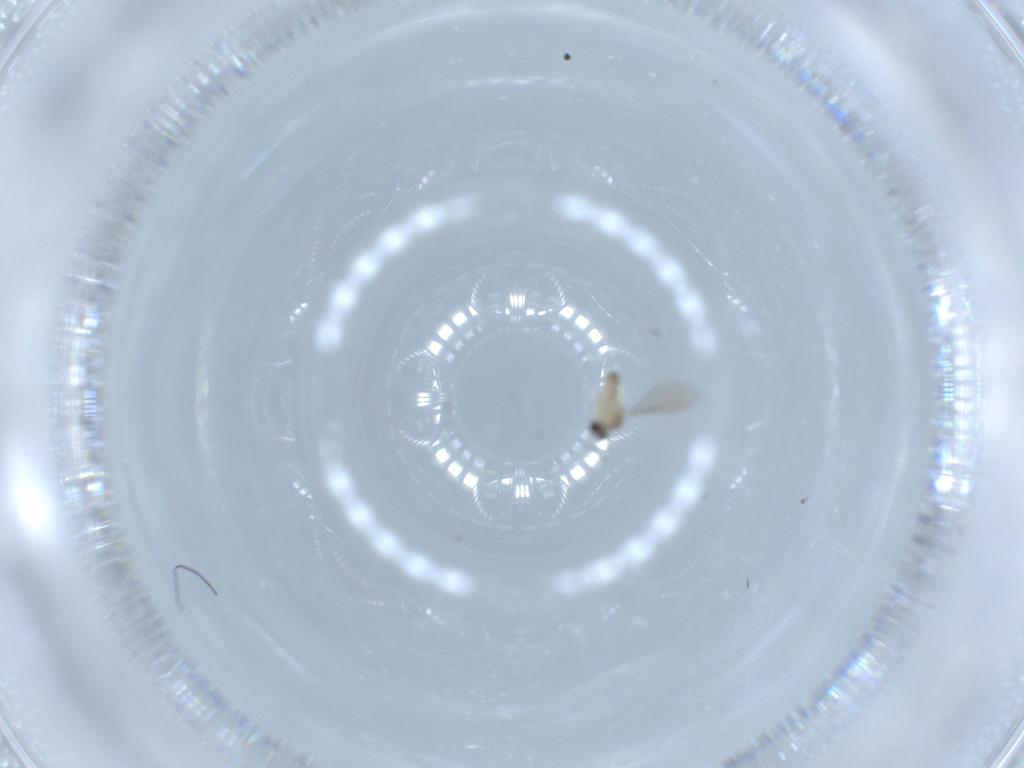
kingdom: Animalia
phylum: Arthropoda
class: Insecta
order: Diptera
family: Cecidomyiidae
